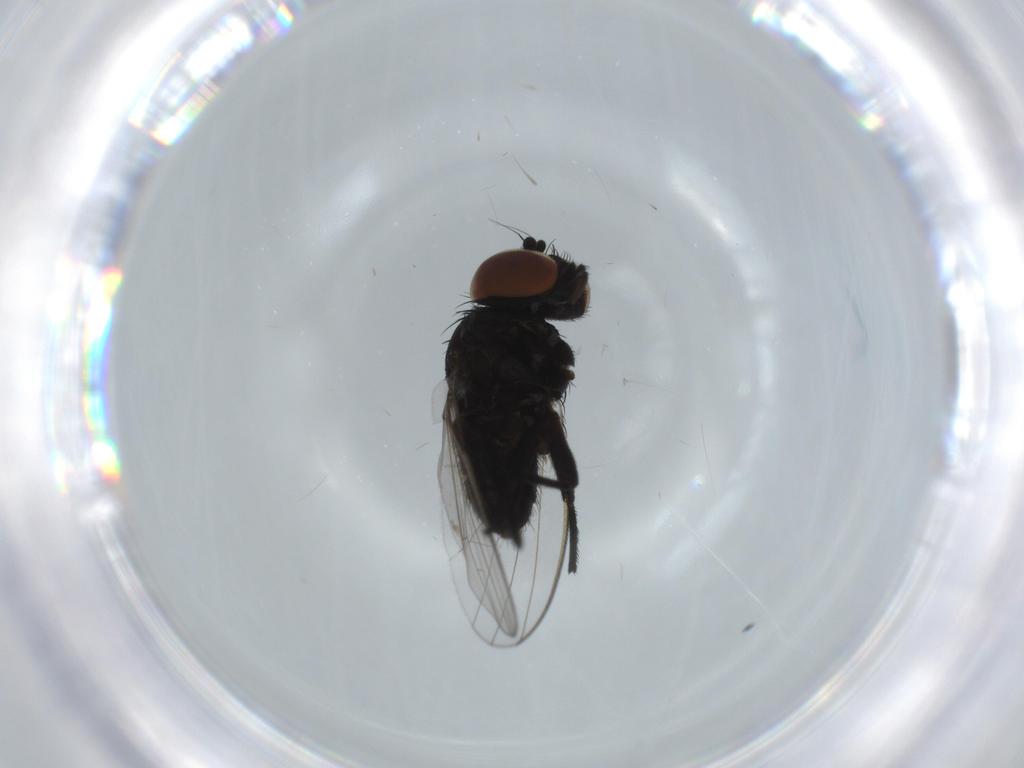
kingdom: Animalia
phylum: Arthropoda
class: Insecta
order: Diptera
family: Milichiidae
